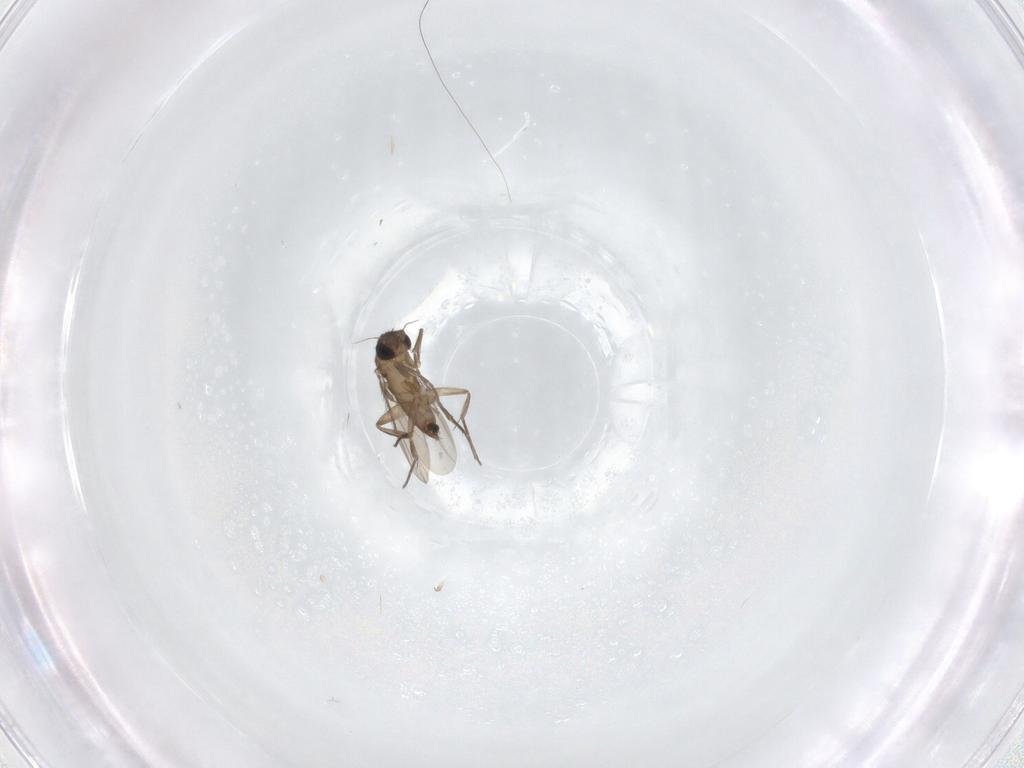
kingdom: Animalia
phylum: Arthropoda
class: Insecta
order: Diptera
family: Phoridae
